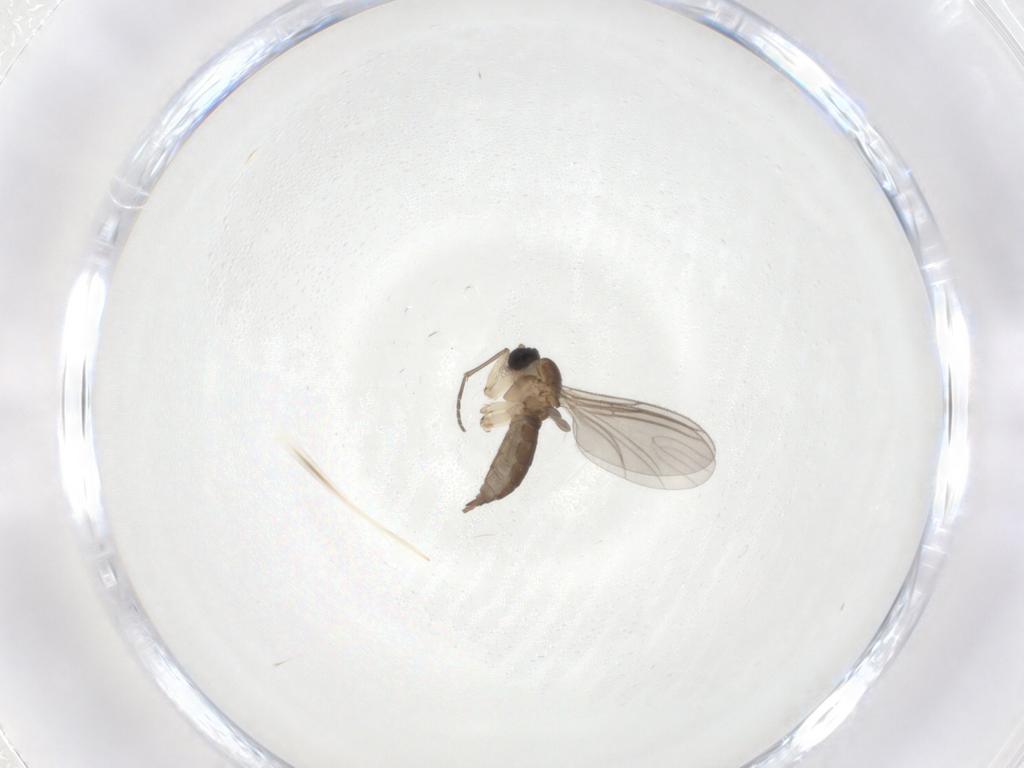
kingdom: Animalia
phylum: Arthropoda
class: Insecta
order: Diptera
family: Sciaridae
